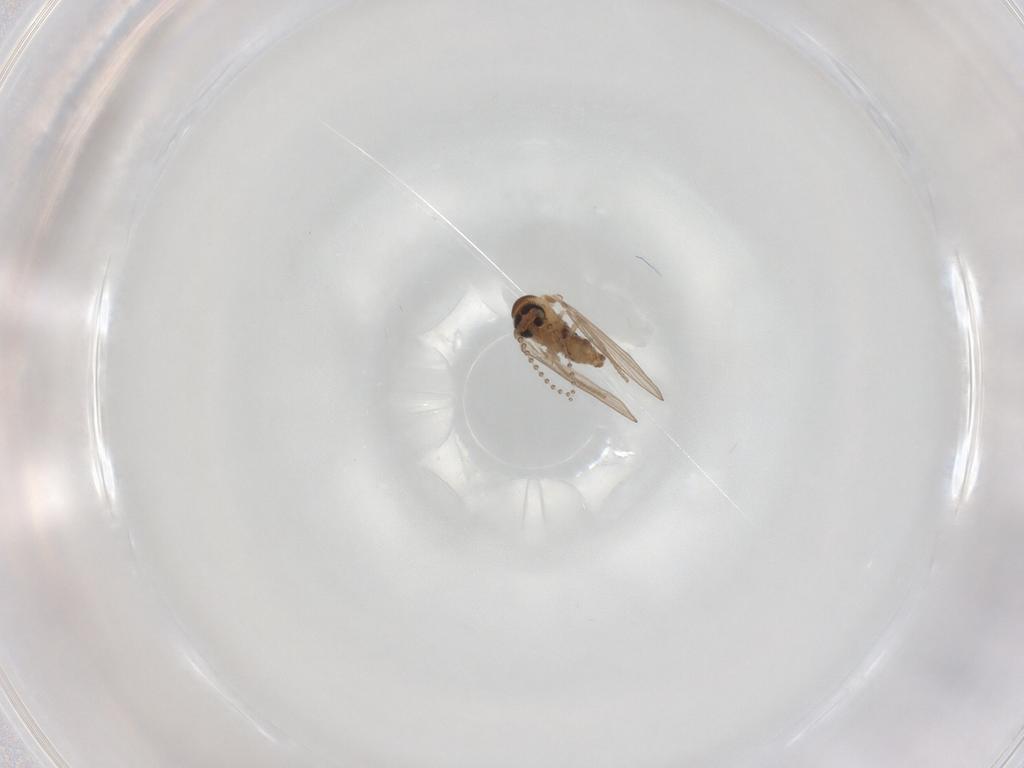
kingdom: Animalia
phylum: Arthropoda
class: Insecta
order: Diptera
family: Psychodidae
